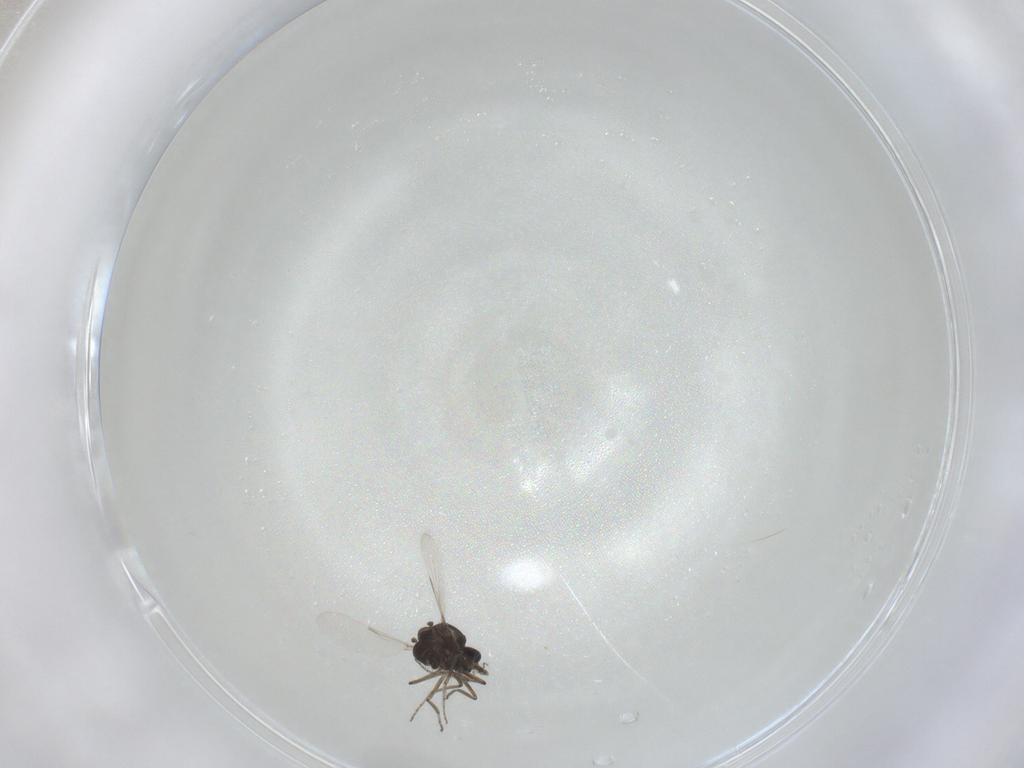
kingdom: Animalia
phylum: Arthropoda
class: Insecta
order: Diptera
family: Ceratopogonidae
